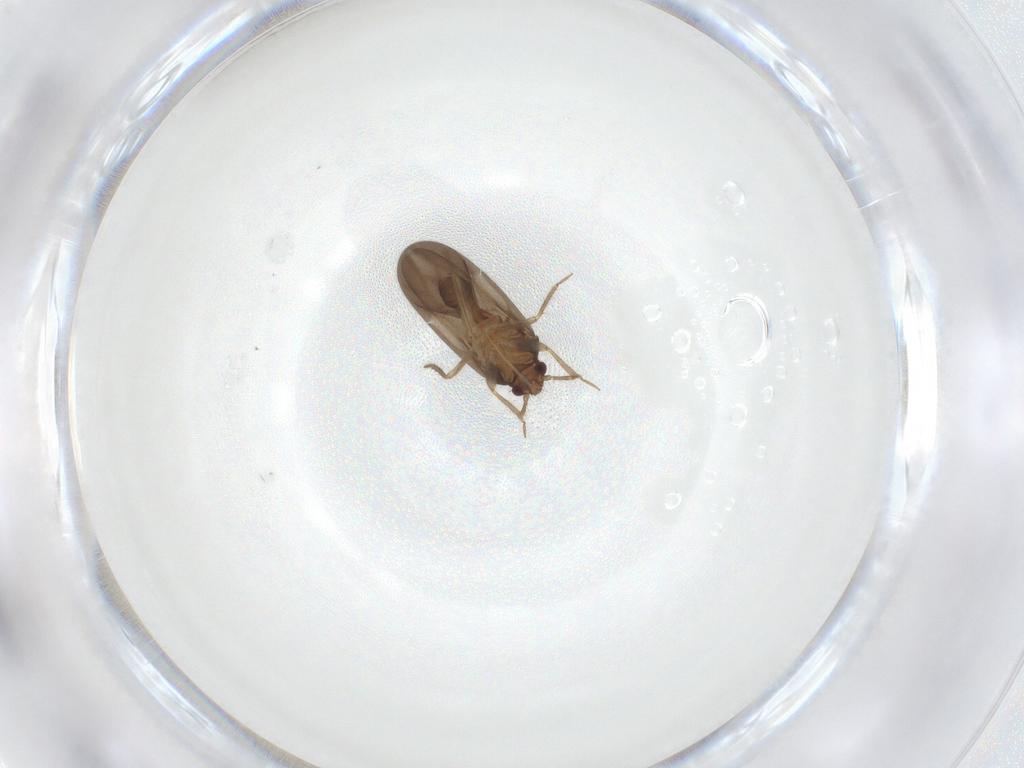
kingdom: Animalia
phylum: Arthropoda
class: Insecta
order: Hemiptera
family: Ceratocombidae
